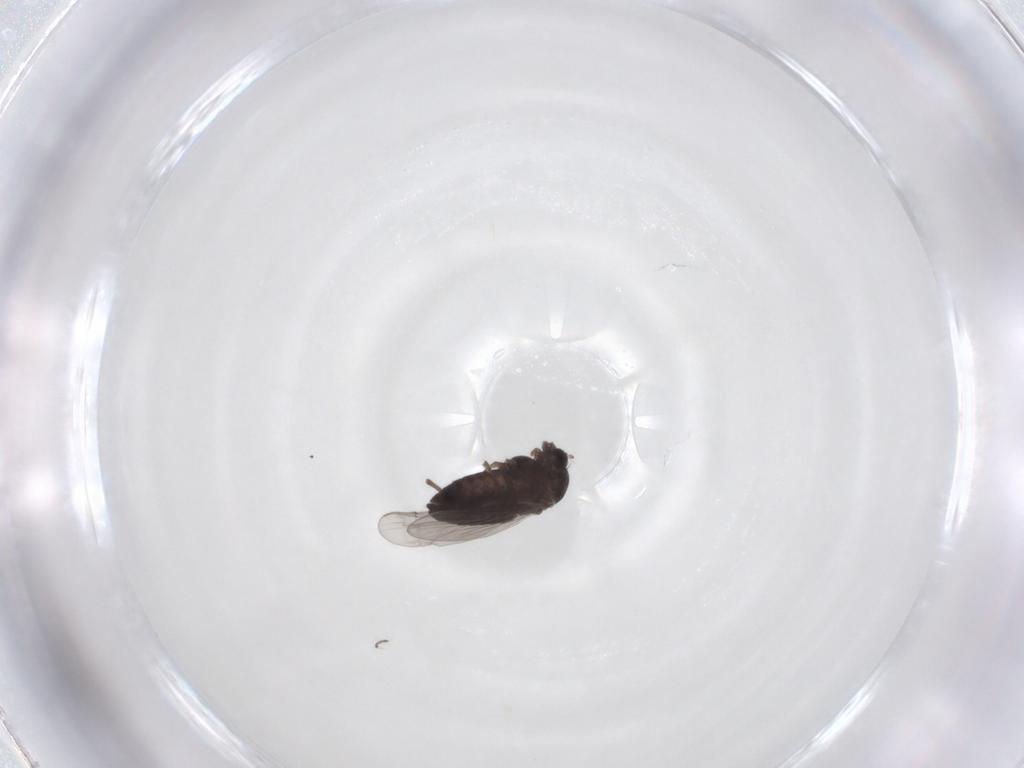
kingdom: Animalia
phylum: Arthropoda
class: Insecta
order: Diptera
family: Chironomidae
